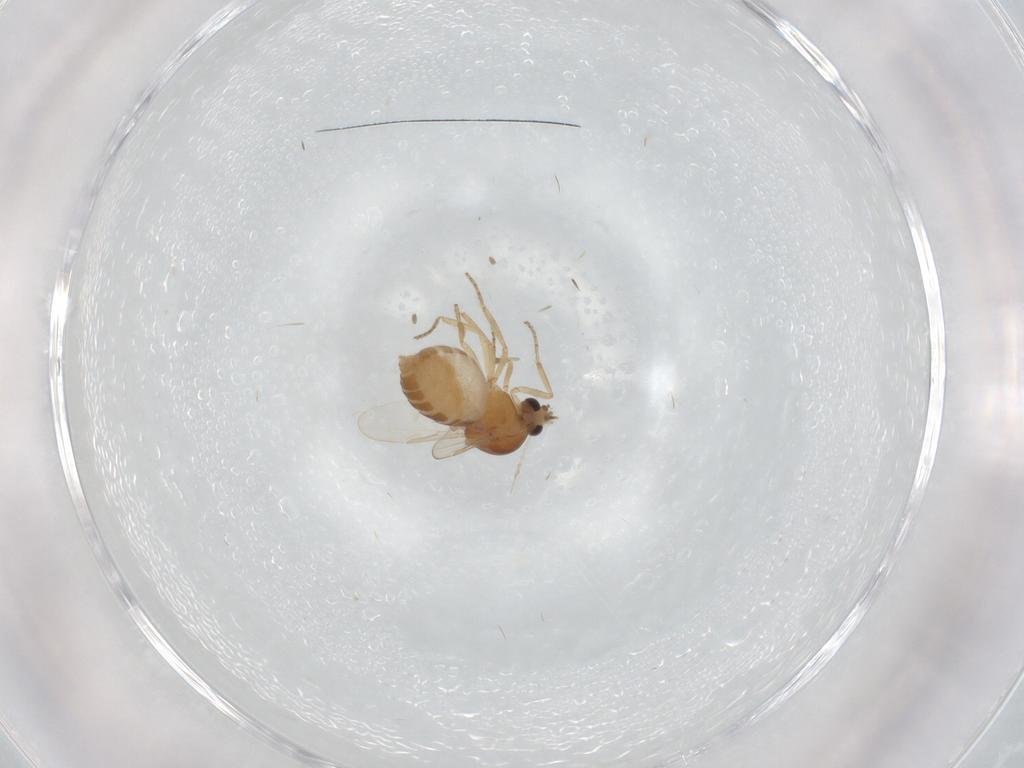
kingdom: Animalia
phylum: Arthropoda
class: Insecta
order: Diptera
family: Ceratopogonidae
